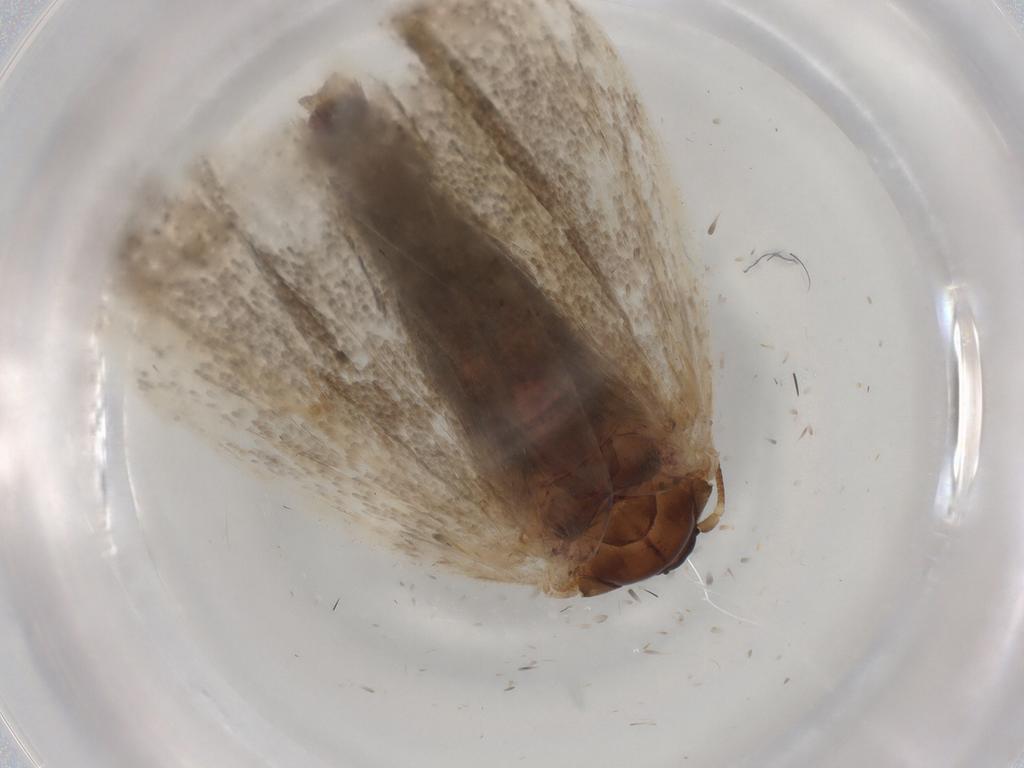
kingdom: Animalia
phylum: Arthropoda
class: Insecta
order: Lepidoptera
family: Tortricidae
